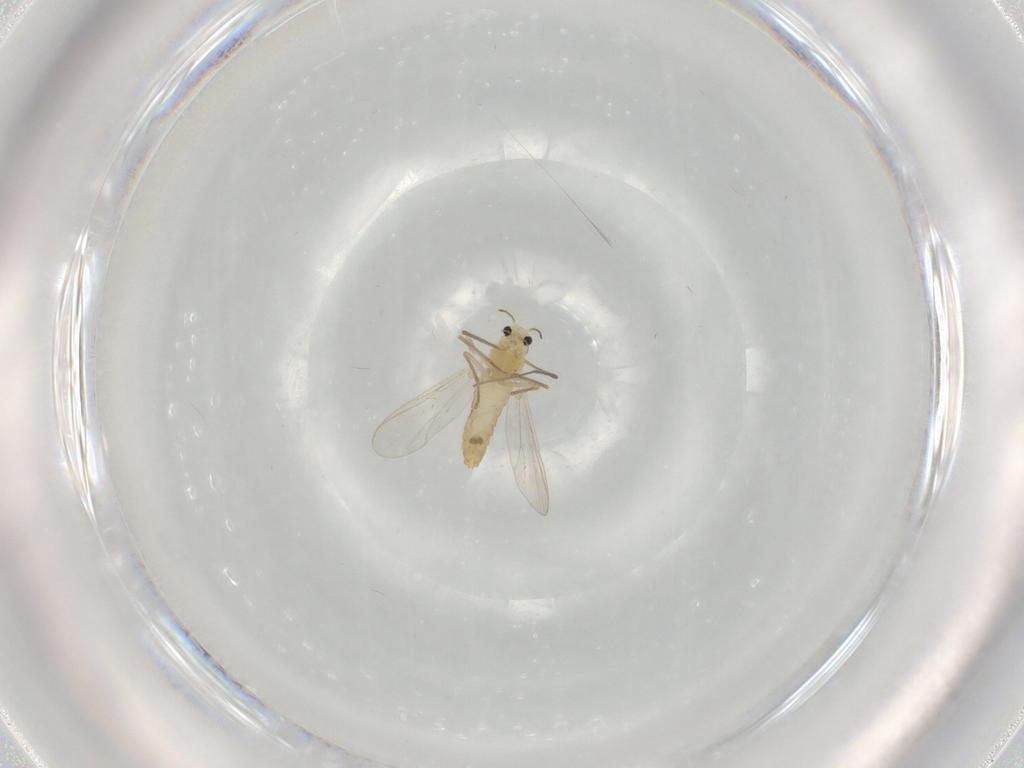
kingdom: Animalia
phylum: Arthropoda
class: Insecta
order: Diptera
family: Chironomidae
